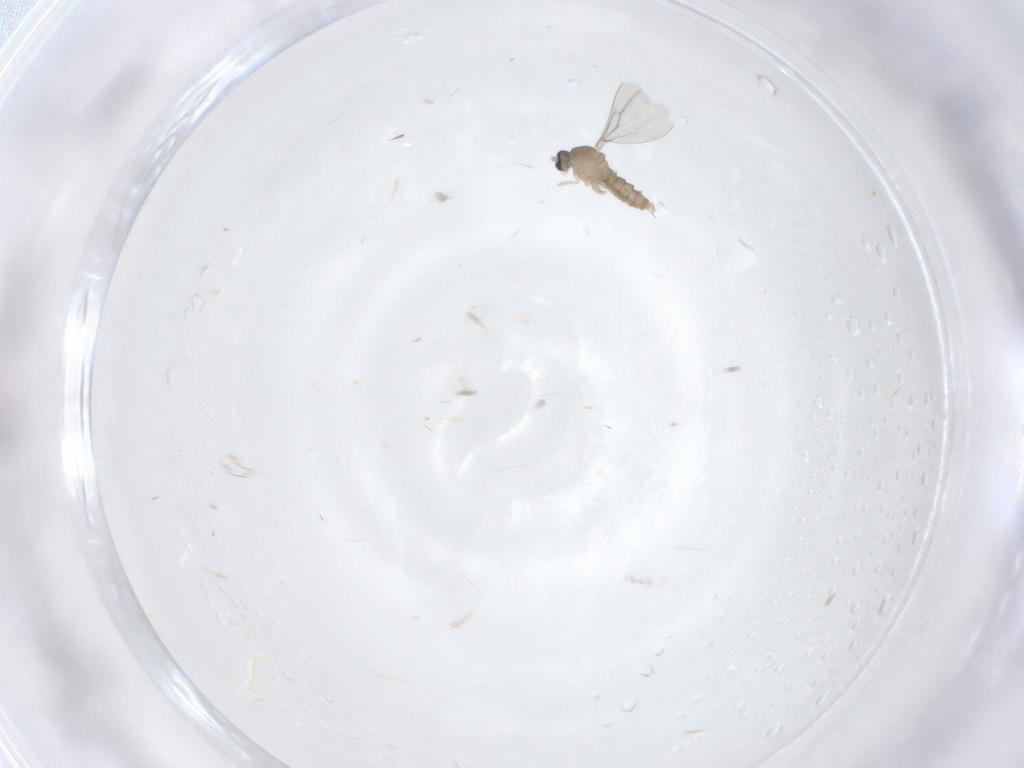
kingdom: Animalia
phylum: Arthropoda
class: Insecta
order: Diptera
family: Cecidomyiidae
